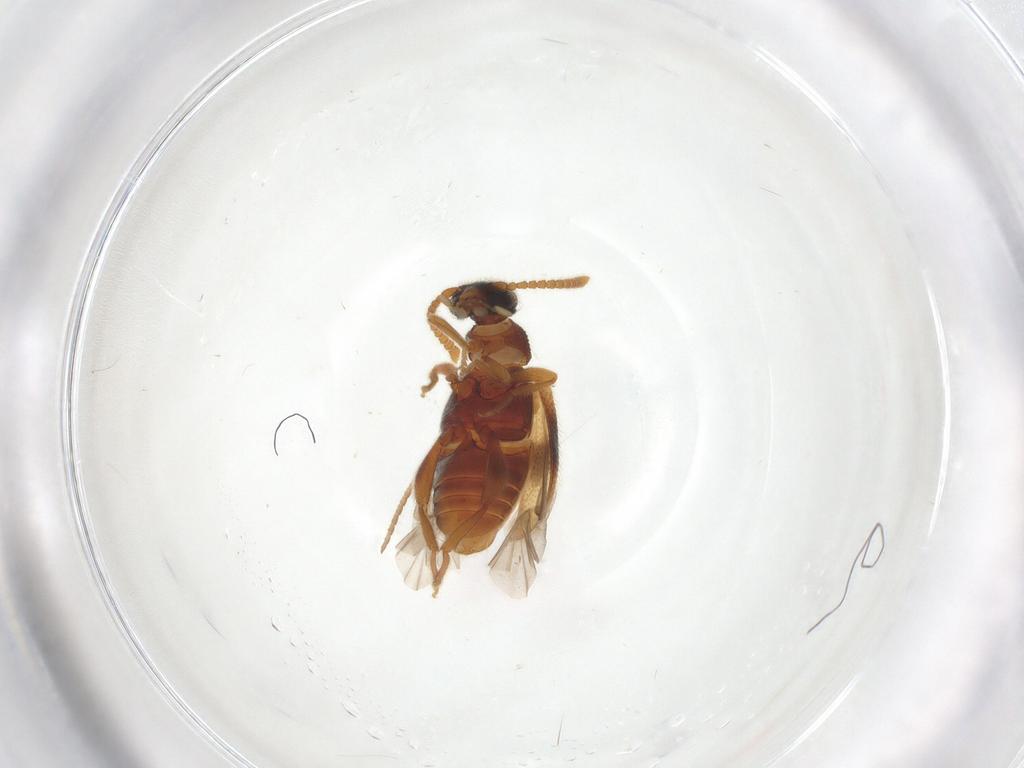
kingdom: Animalia
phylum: Arthropoda
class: Insecta
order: Coleoptera
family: Aderidae
